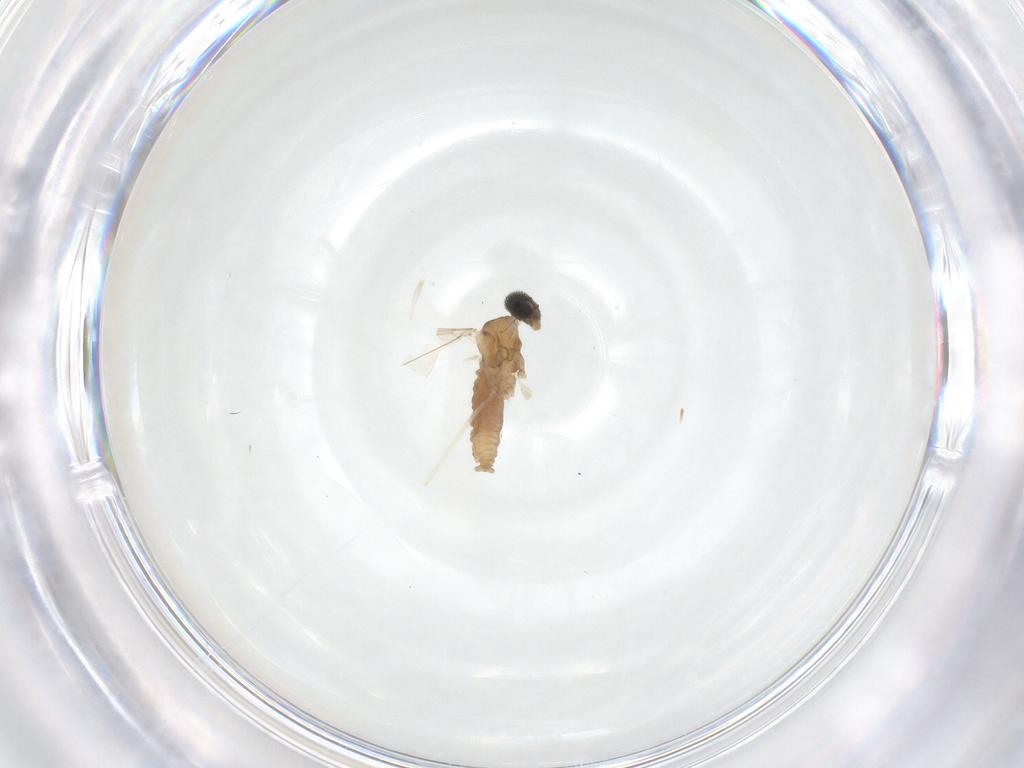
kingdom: Animalia
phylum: Arthropoda
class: Insecta
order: Diptera
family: Cecidomyiidae
